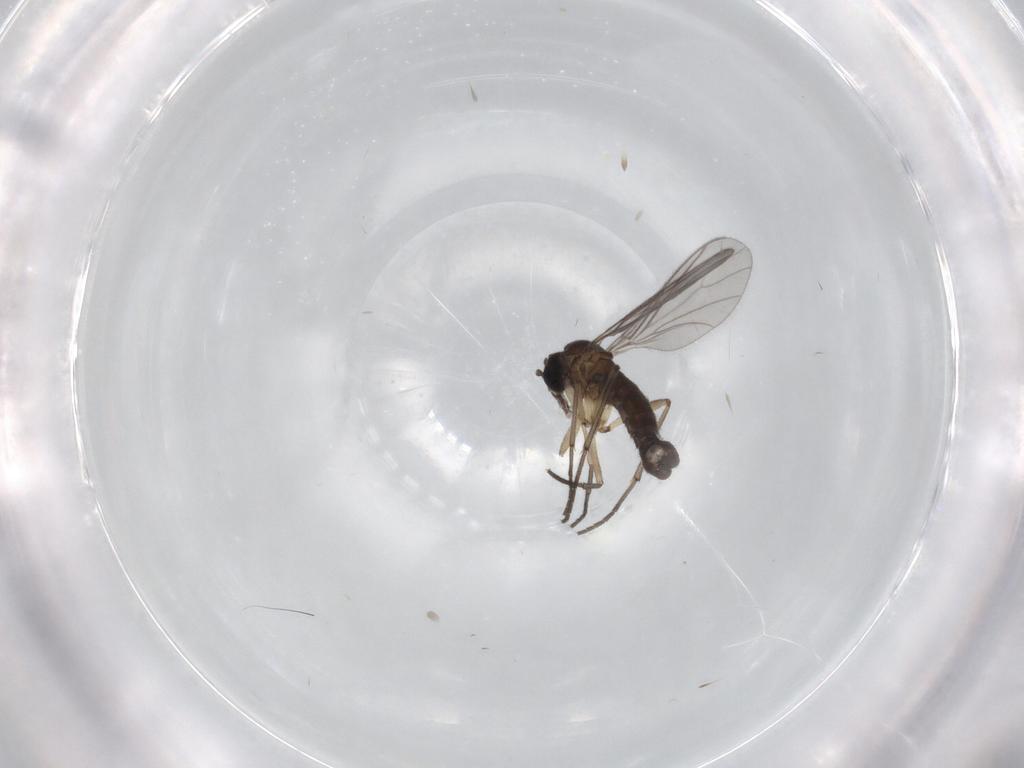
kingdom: Animalia
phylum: Arthropoda
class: Insecta
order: Diptera
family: Sciaridae
